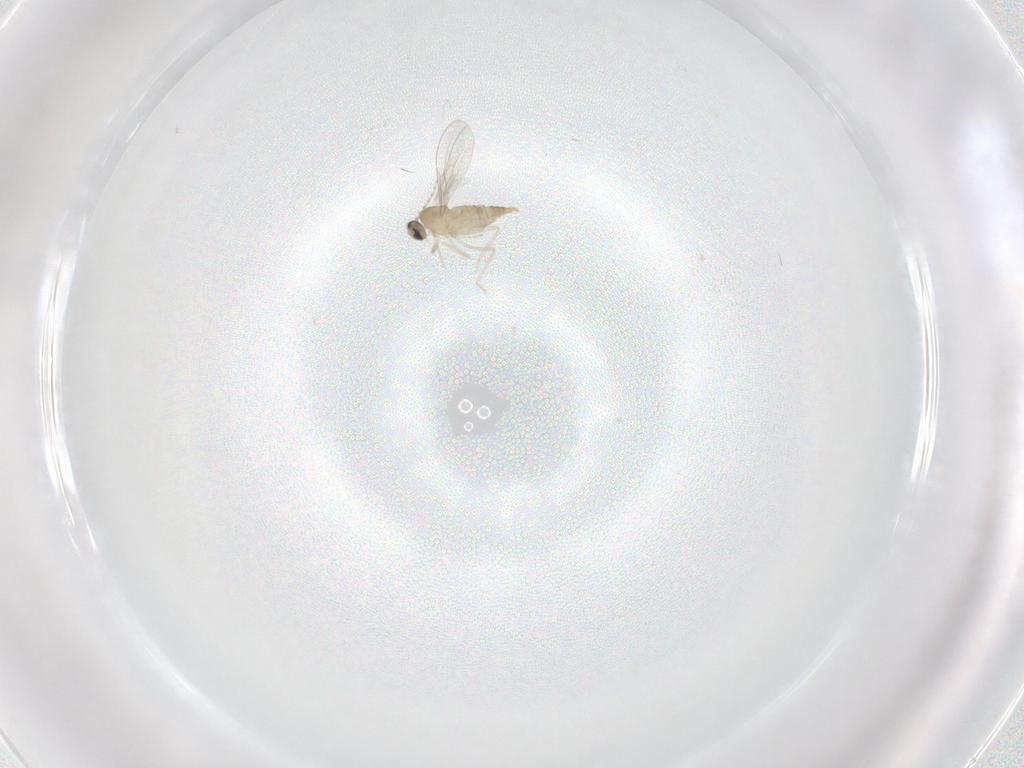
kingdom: Animalia
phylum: Arthropoda
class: Insecta
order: Diptera
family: Cecidomyiidae
